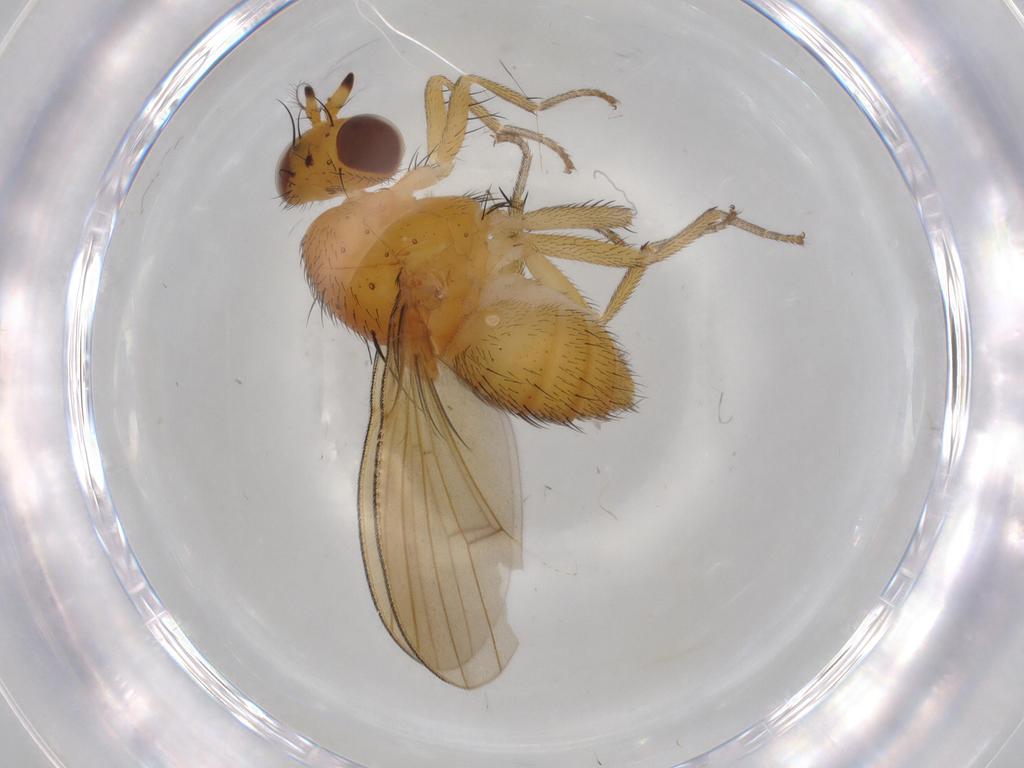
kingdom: Animalia
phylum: Arthropoda
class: Insecta
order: Diptera
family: Lauxaniidae
